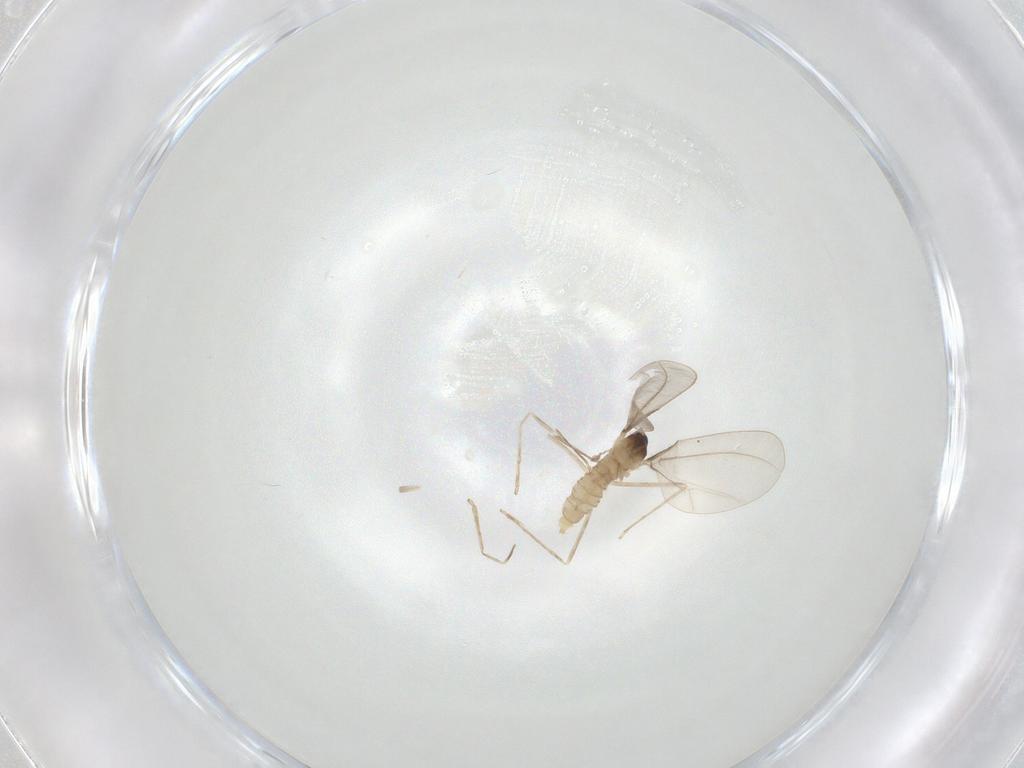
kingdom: Animalia
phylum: Arthropoda
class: Insecta
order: Diptera
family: Cecidomyiidae
